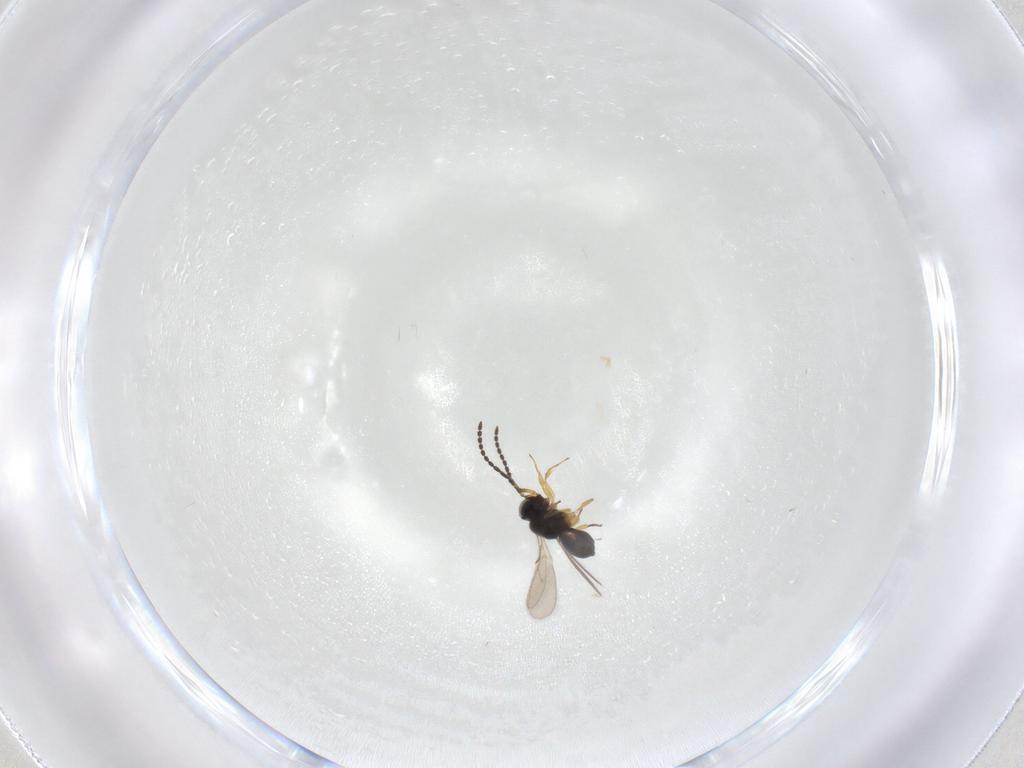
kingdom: Animalia
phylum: Arthropoda
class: Insecta
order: Hymenoptera
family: Scelionidae
